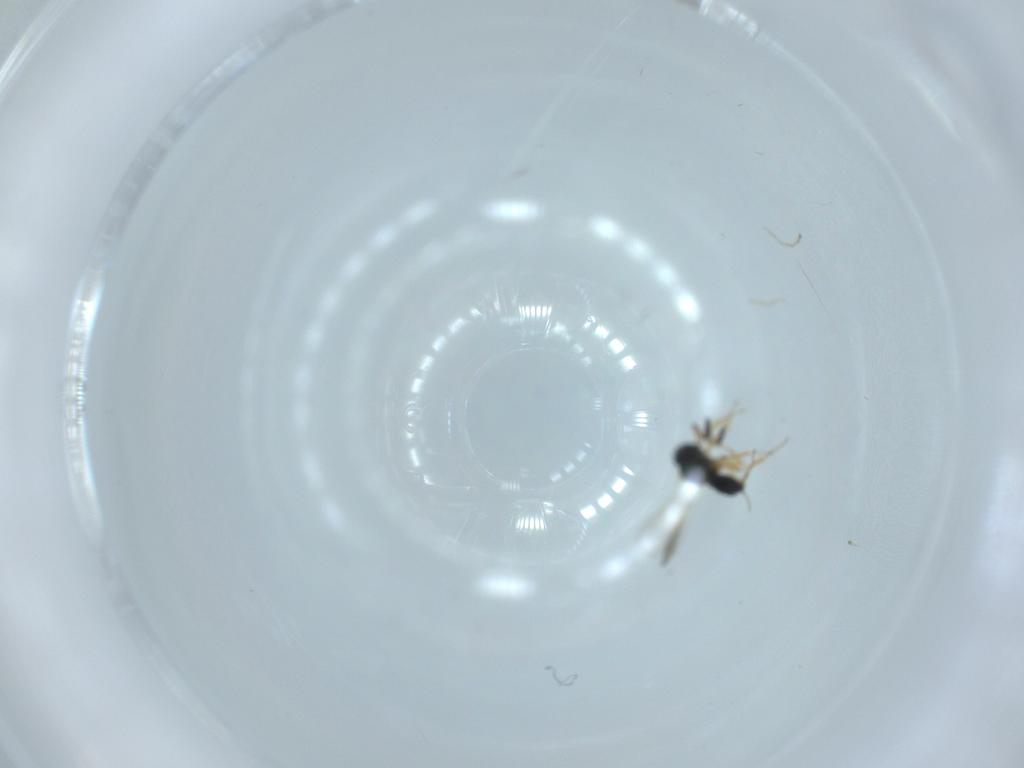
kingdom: Animalia
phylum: Arthropoda
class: Insecta
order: Hymenoptera
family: Scelionidae
